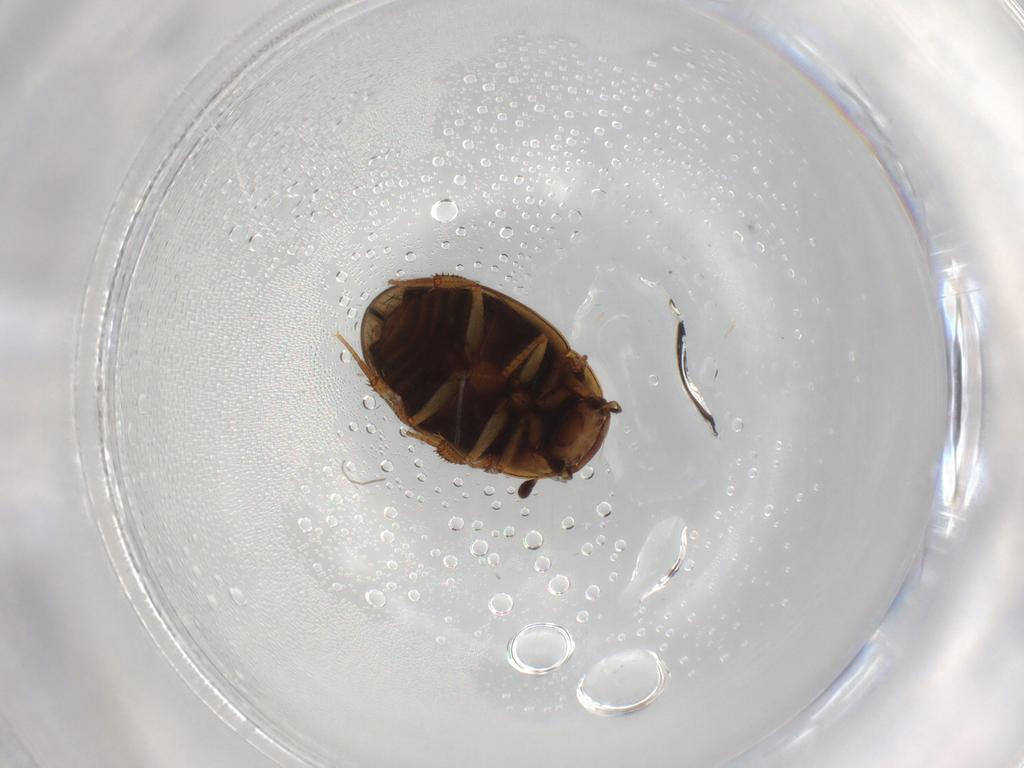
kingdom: Animalia
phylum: Arthropoda
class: Insecta
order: Coleoptera
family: Hydrophilidae
